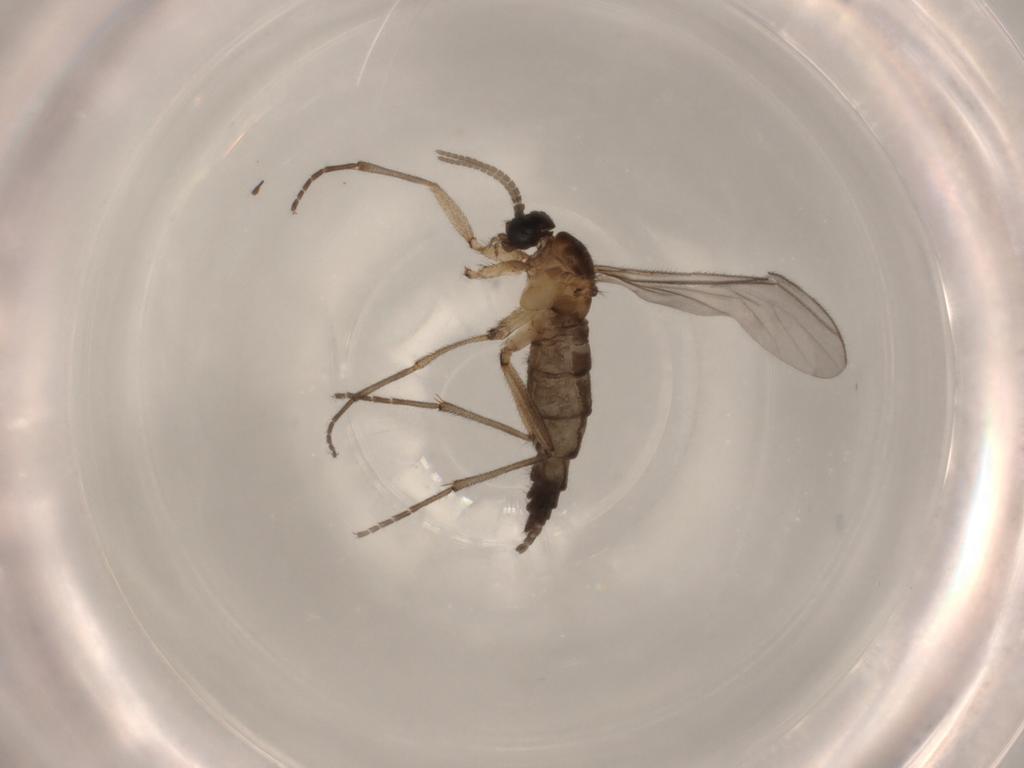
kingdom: Animalia
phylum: Arthropoda
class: Insecta
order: Diptera
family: Sciaridae
